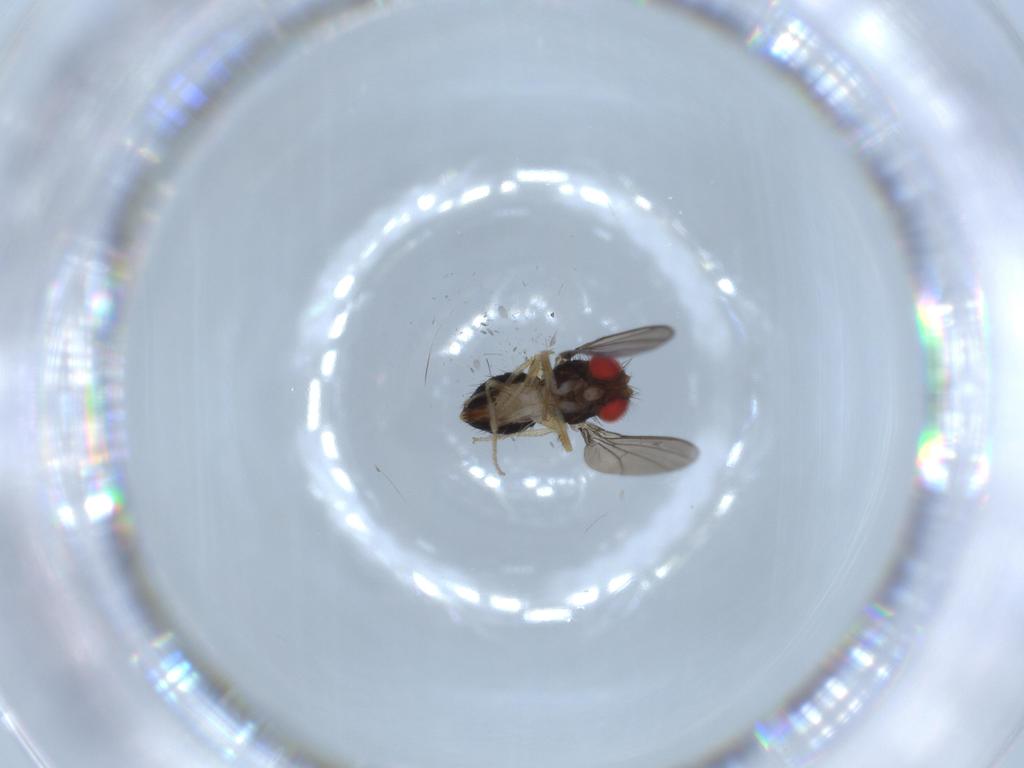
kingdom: Animalia
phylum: Arthropoda
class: Insecta
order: Diptera
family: Drosophilidae
